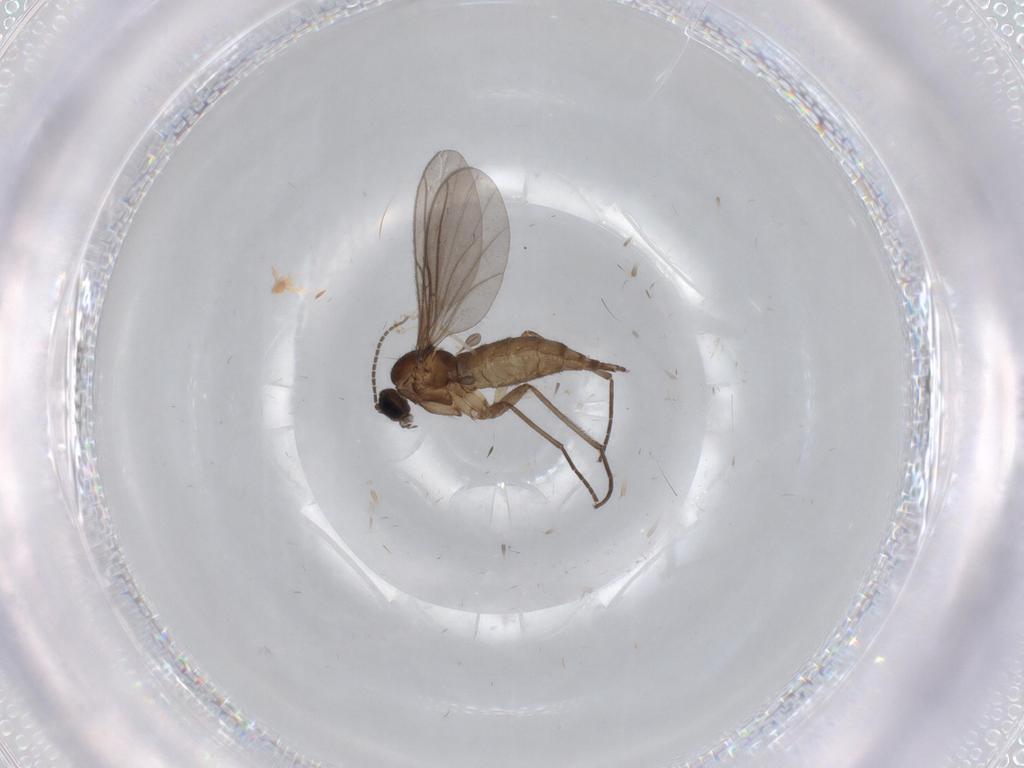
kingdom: Animalia
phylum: Arthropoda
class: Insecta
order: Diptera
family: Sciaridae
